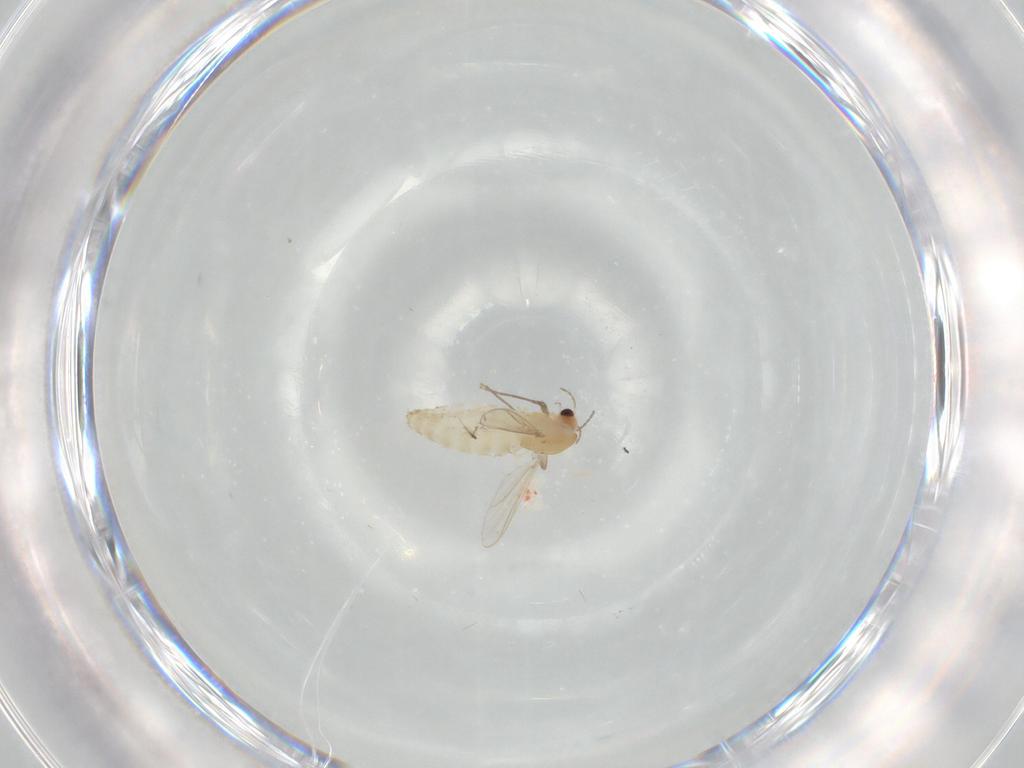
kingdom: Animalia
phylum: Arthropoda
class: Insecta
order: Diptera
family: Chironomidae
